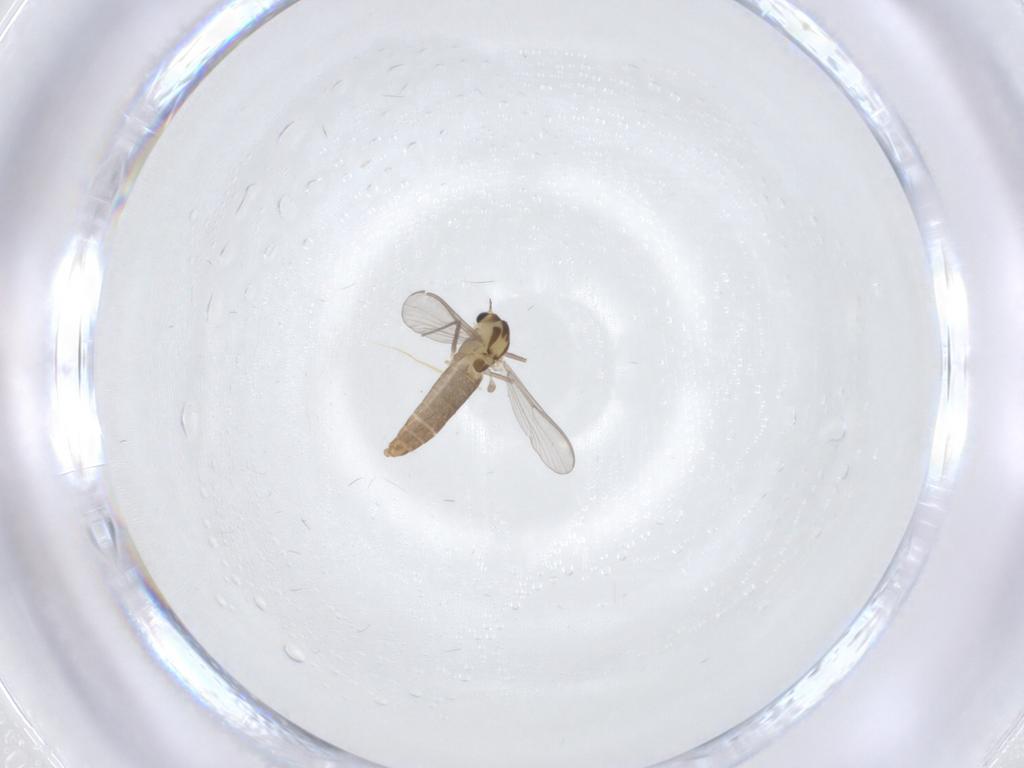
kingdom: Animalia
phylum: Arthropoda
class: Insecta
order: Diptera
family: Chironomidae
